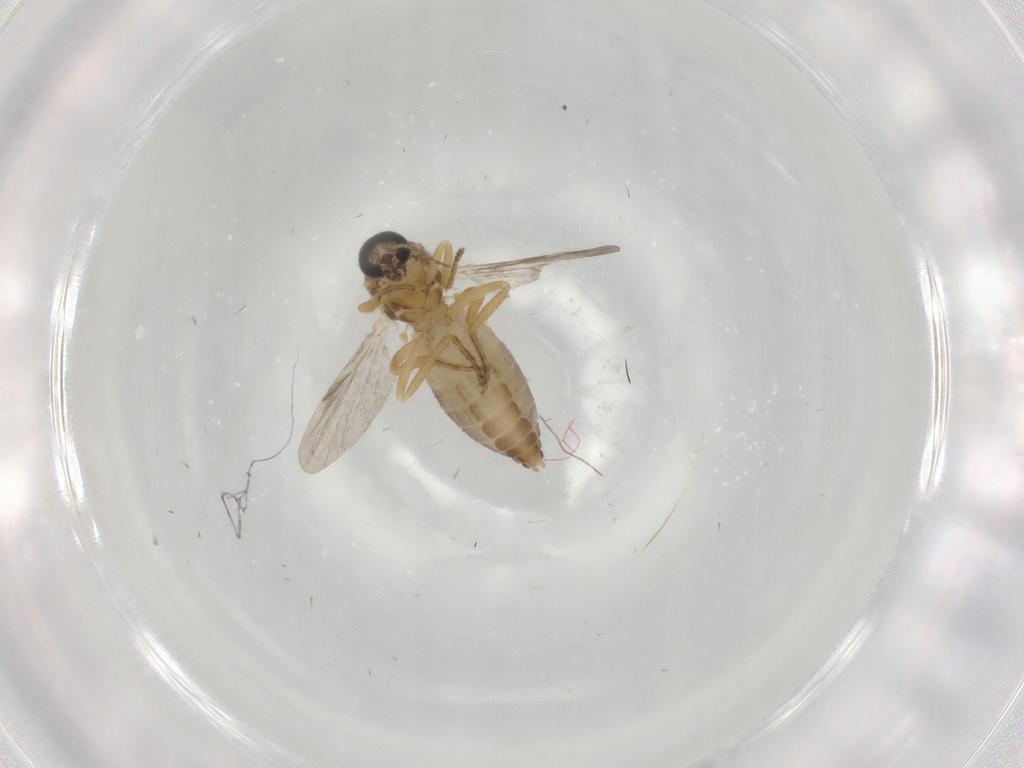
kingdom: Animalia
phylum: Arthropoda
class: Insecta
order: Diptera
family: Ceratopogonidae
